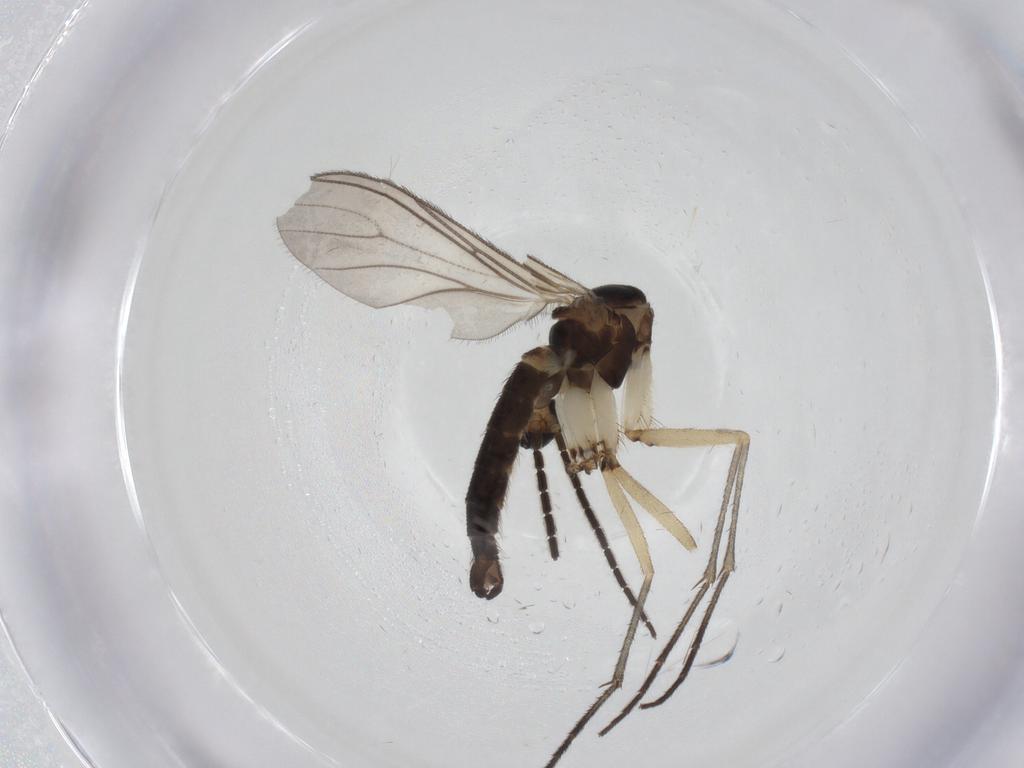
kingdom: Animalia
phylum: Arthropoda
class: Insecta
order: Diptera
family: Sciaridae
